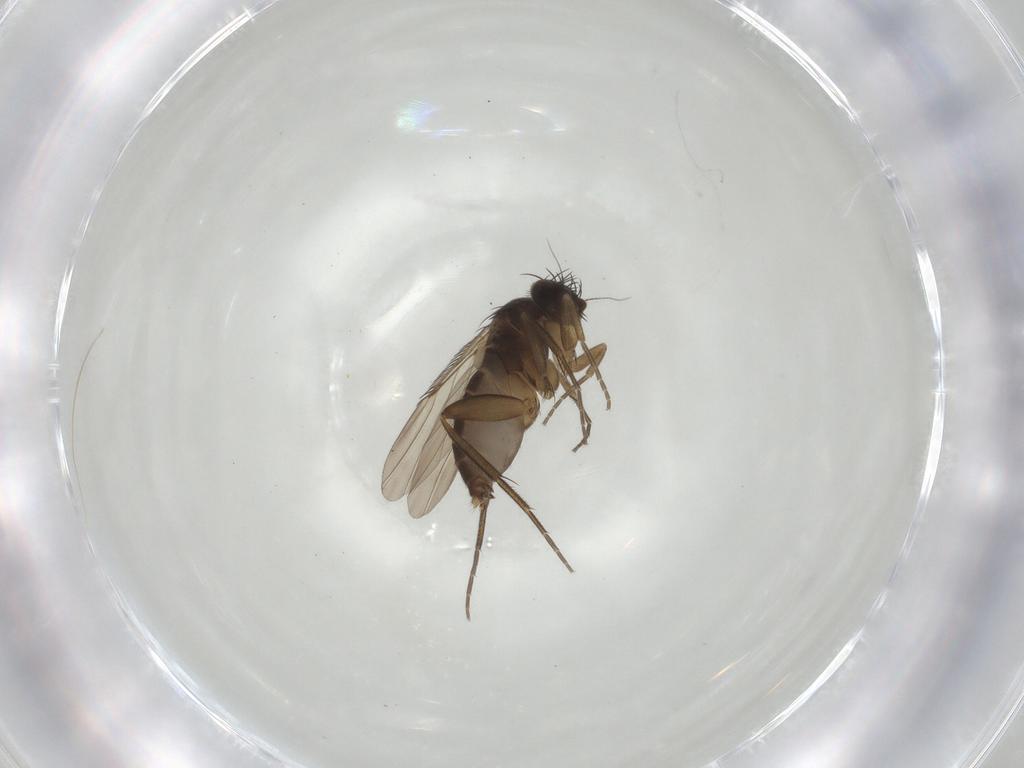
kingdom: Animalia
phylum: Arthropoda
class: Insecta
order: Diptera
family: Phoridae
